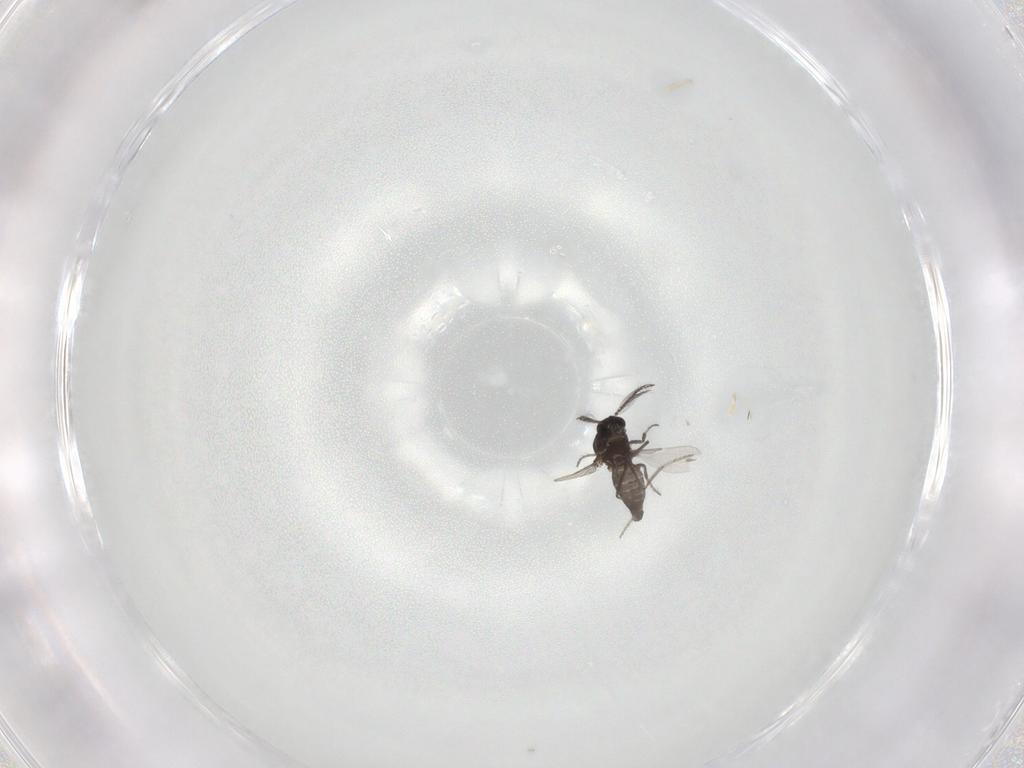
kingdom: Animalia
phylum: Arthropoda
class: Insecta
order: Diptera
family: Ceratopogonidae
